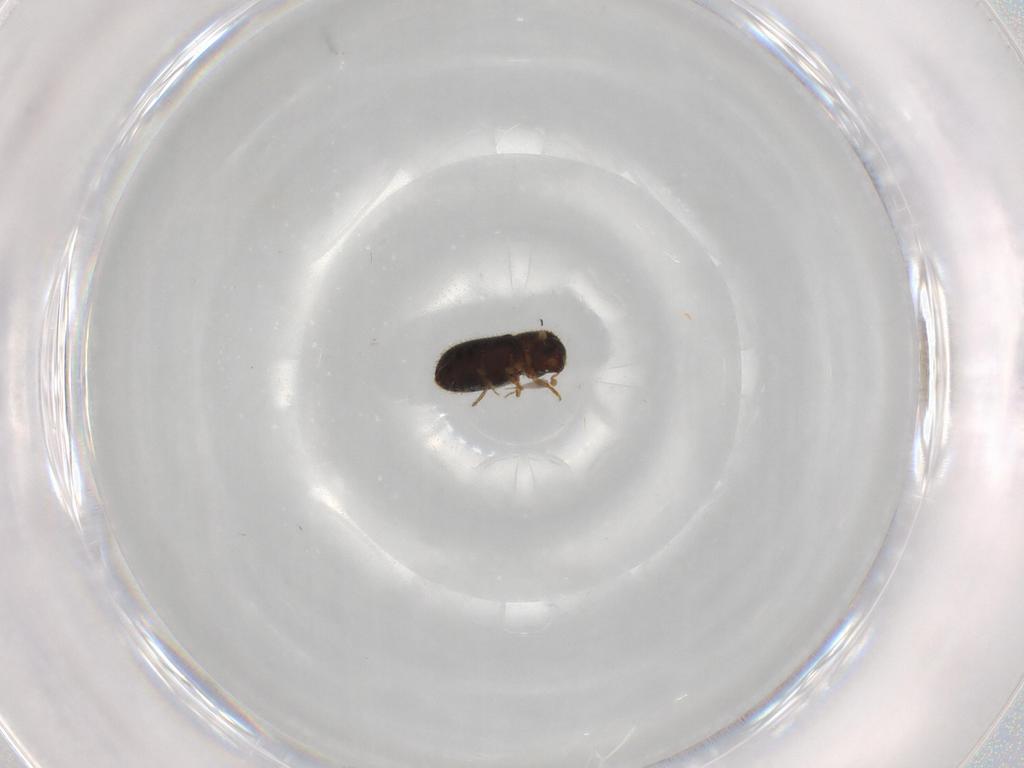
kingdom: Animalia
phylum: Arthropoda
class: Insecta
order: Coleoptera
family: Curculionidae
